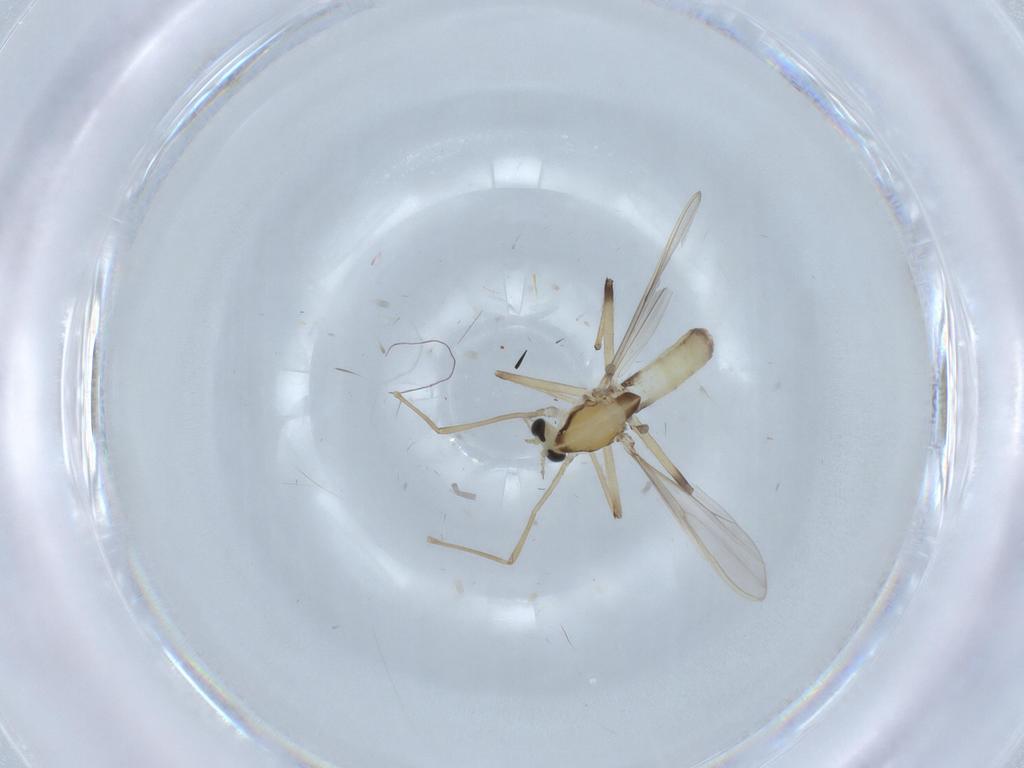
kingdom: Animalia
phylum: Arthropoda
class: Insecta
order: Diptera
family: Chironomidae
